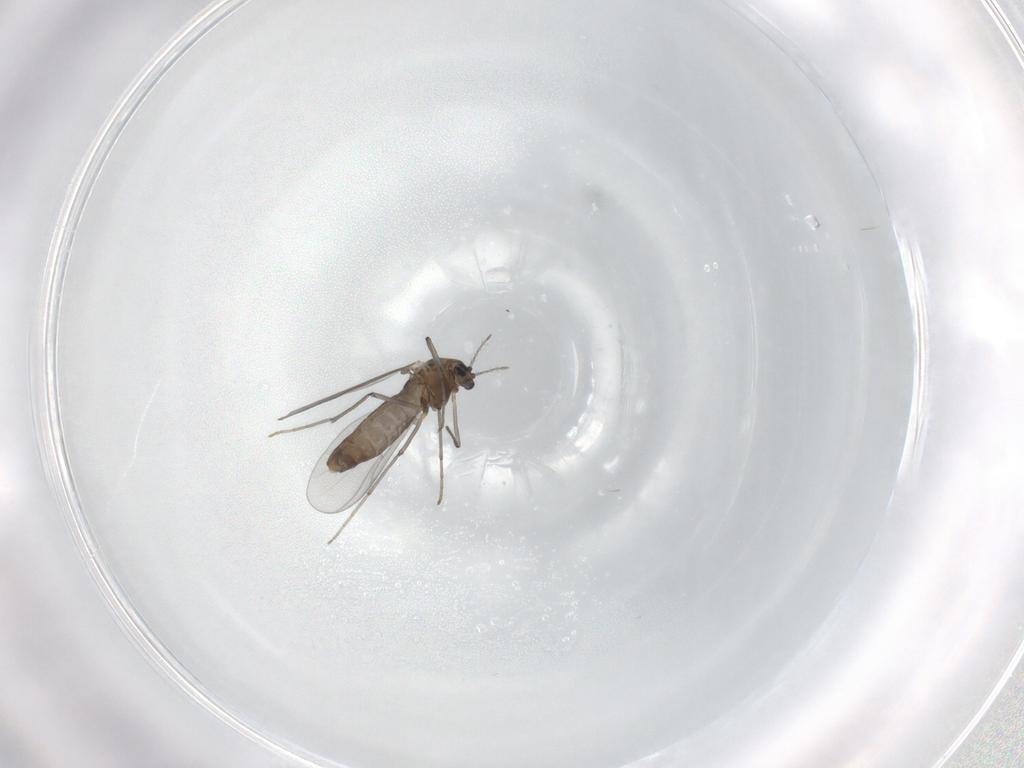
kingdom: Animalia
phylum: Arthropoda
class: Insecta
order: Diptera
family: Chironomidae
